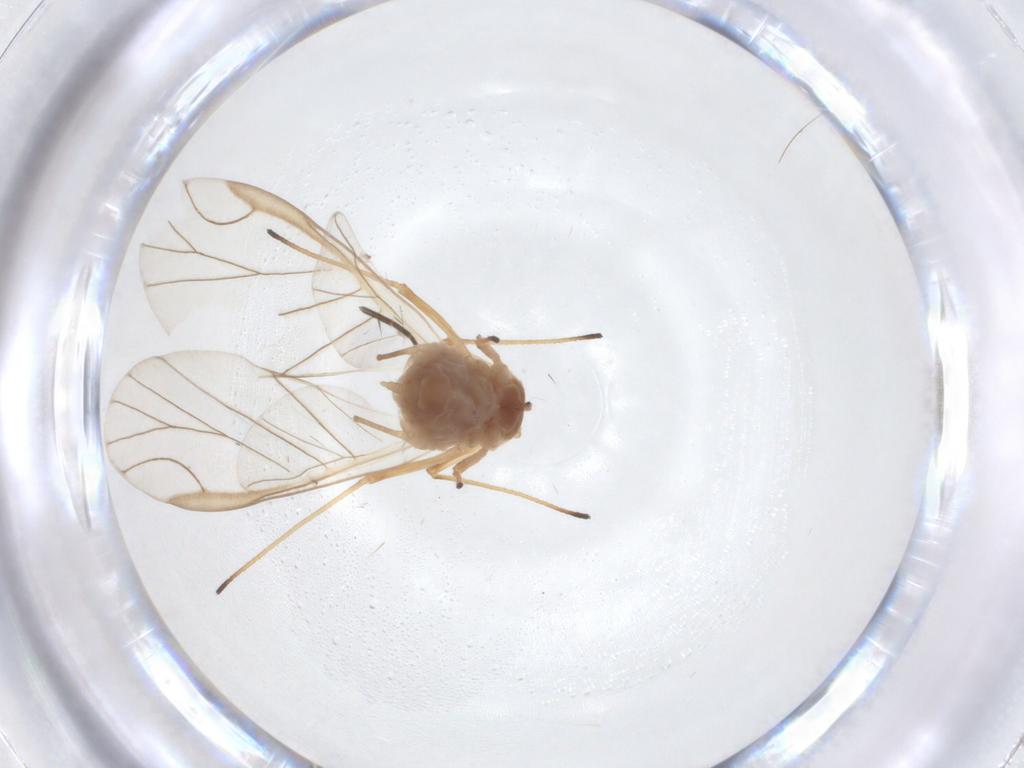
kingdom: Animalia
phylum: Arthropoda
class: Insecta
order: Hemiptera
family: Aphididae
